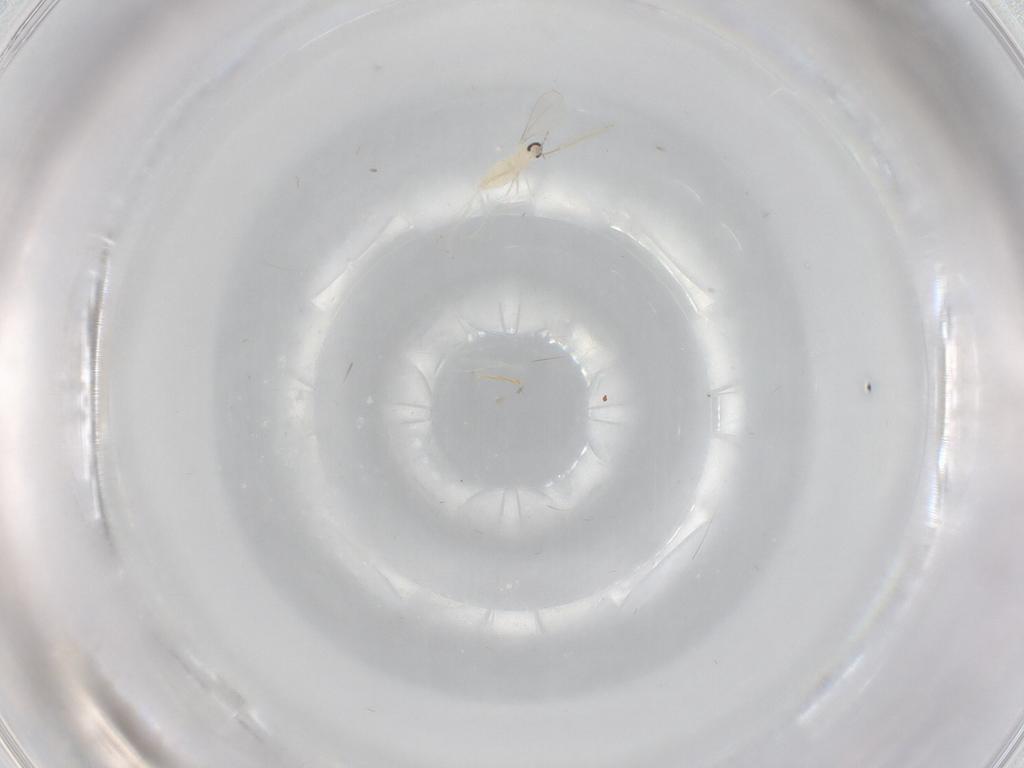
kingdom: Animalia
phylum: Arthropoda
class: Insecta
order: Diptera
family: Cecidomyiidae
